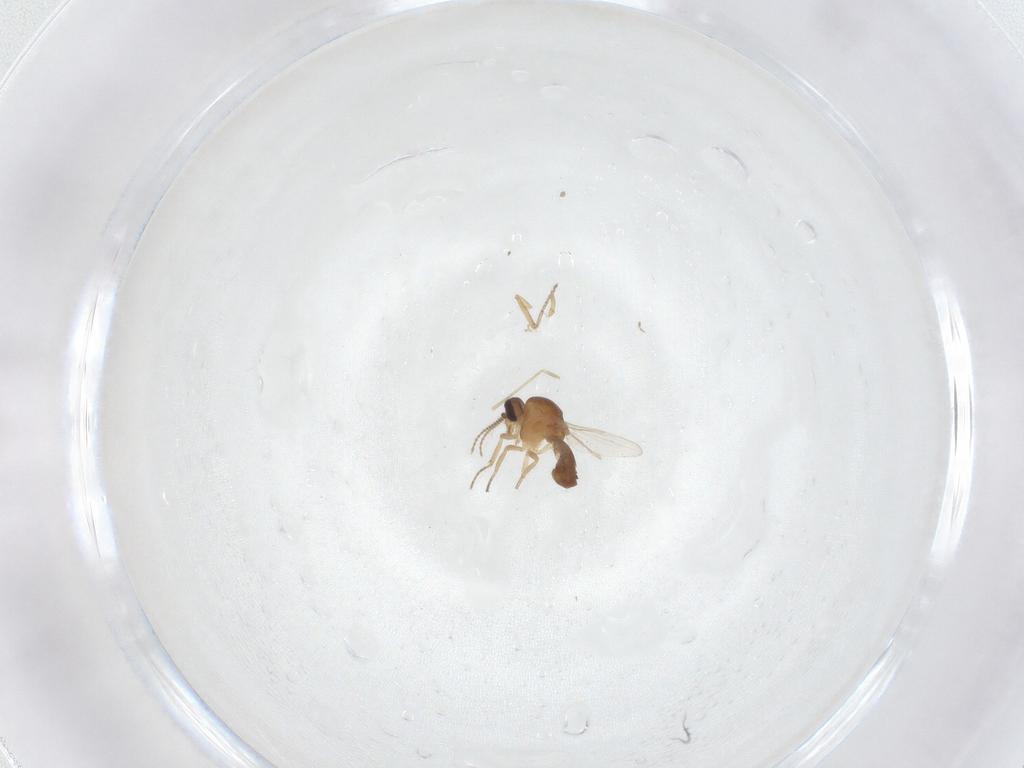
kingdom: Animalia
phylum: Arthropoda
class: Insecta
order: Diptera
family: Ceratopogonidae
